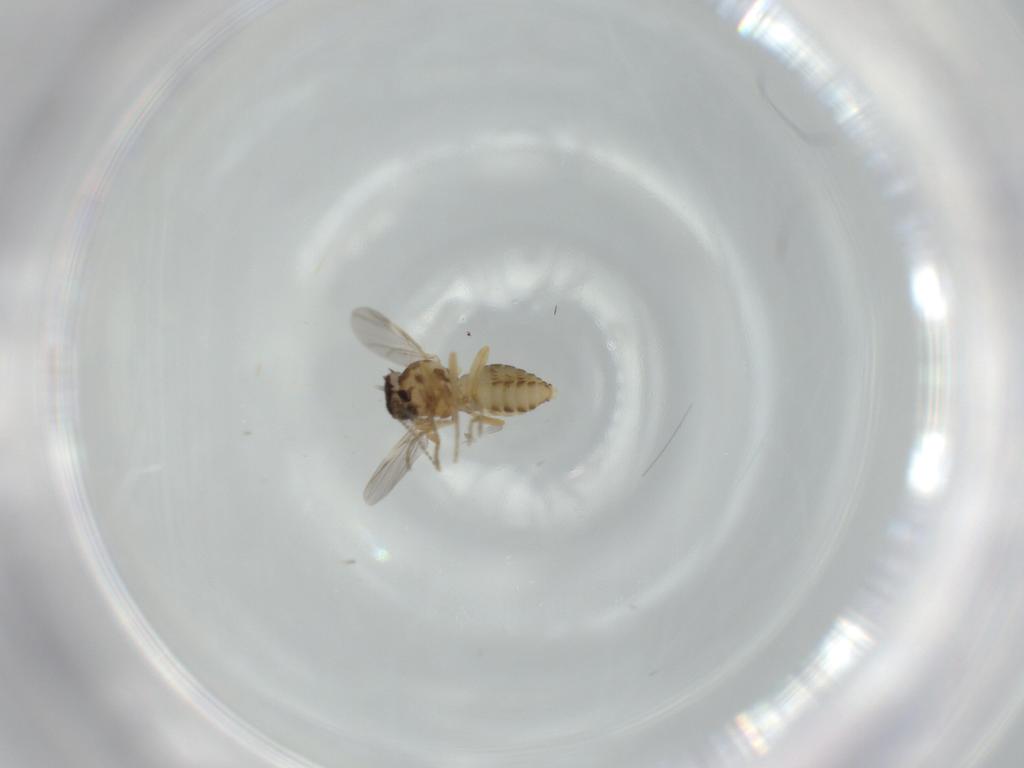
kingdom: Animalia
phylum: Arthropoda
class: Insecta
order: Diptera
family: Ceratopogonidae
